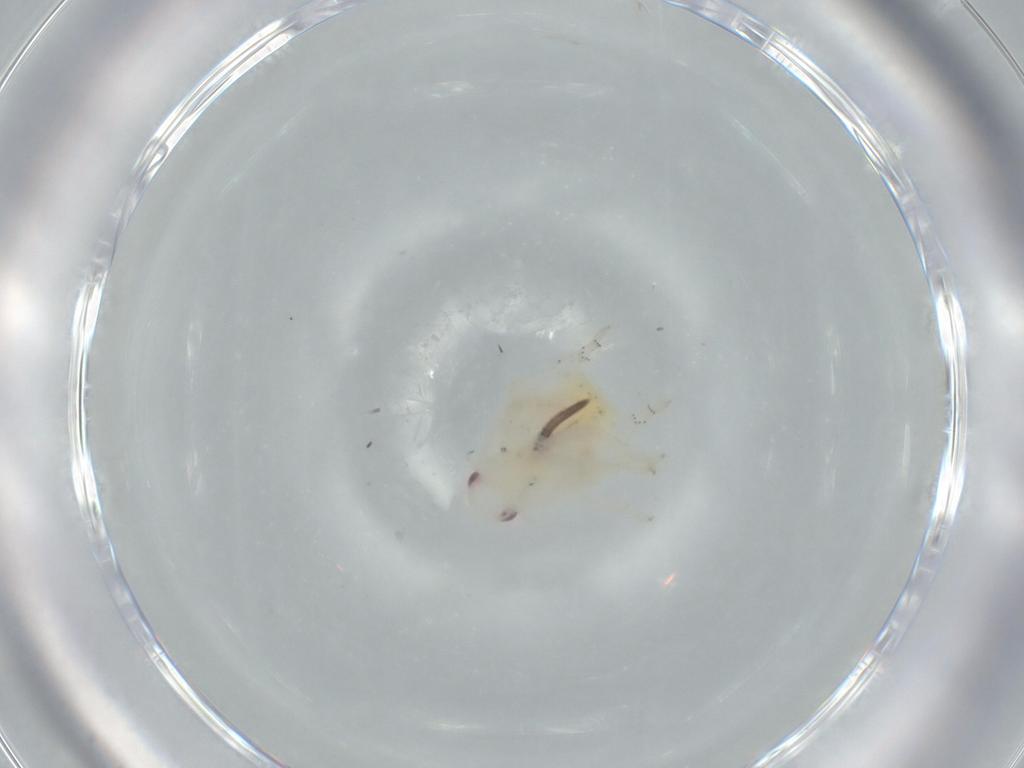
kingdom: Animalia
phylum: Arthropoda
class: Insecta
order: Hemiptera
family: Flatidae
